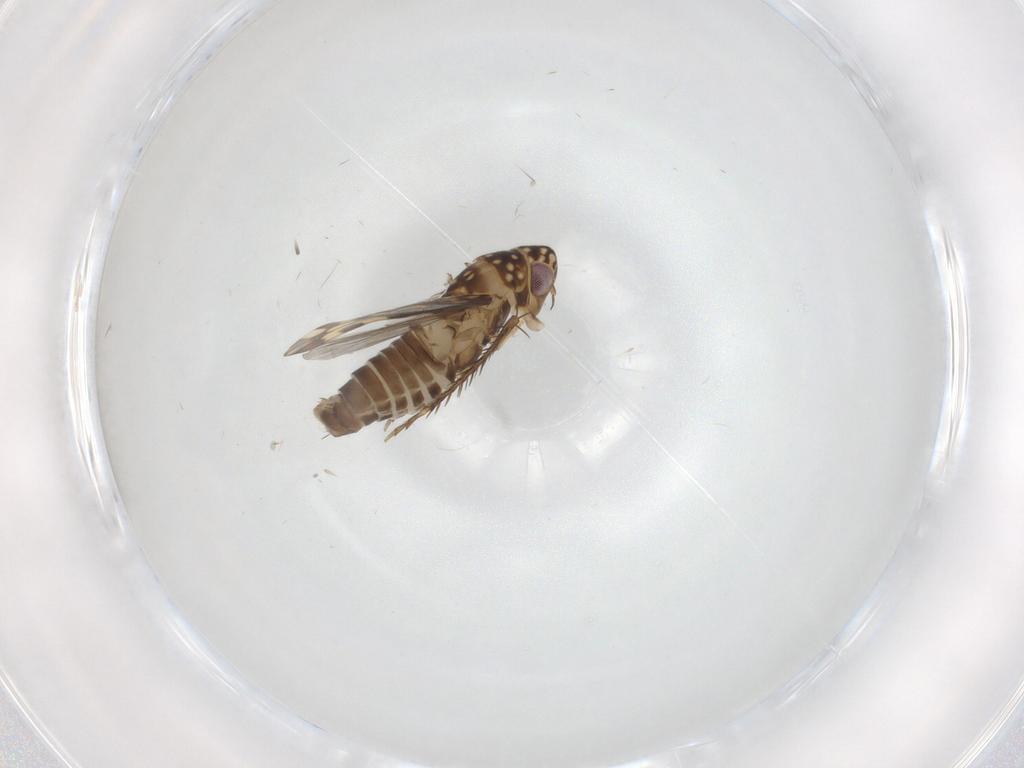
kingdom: Animalia
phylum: Arthropoda
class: Insecta
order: Hemiptera
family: Cicadellidae
